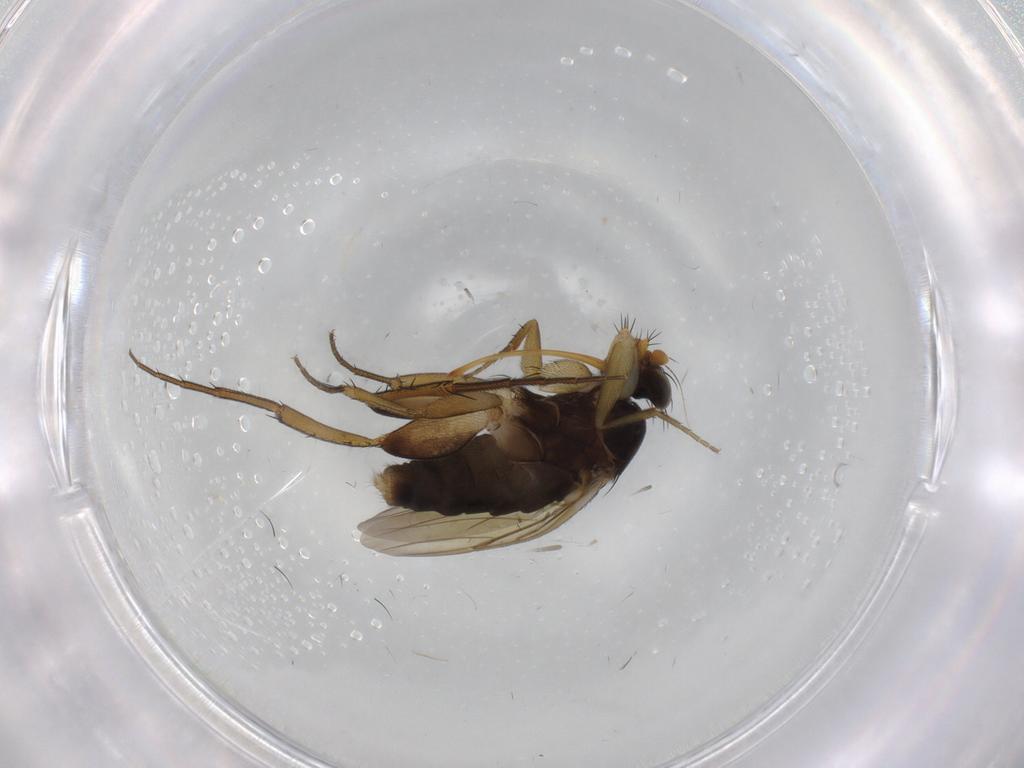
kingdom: Animalia
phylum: Arthropoda
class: Insecta
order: Diptera
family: Phoridae
